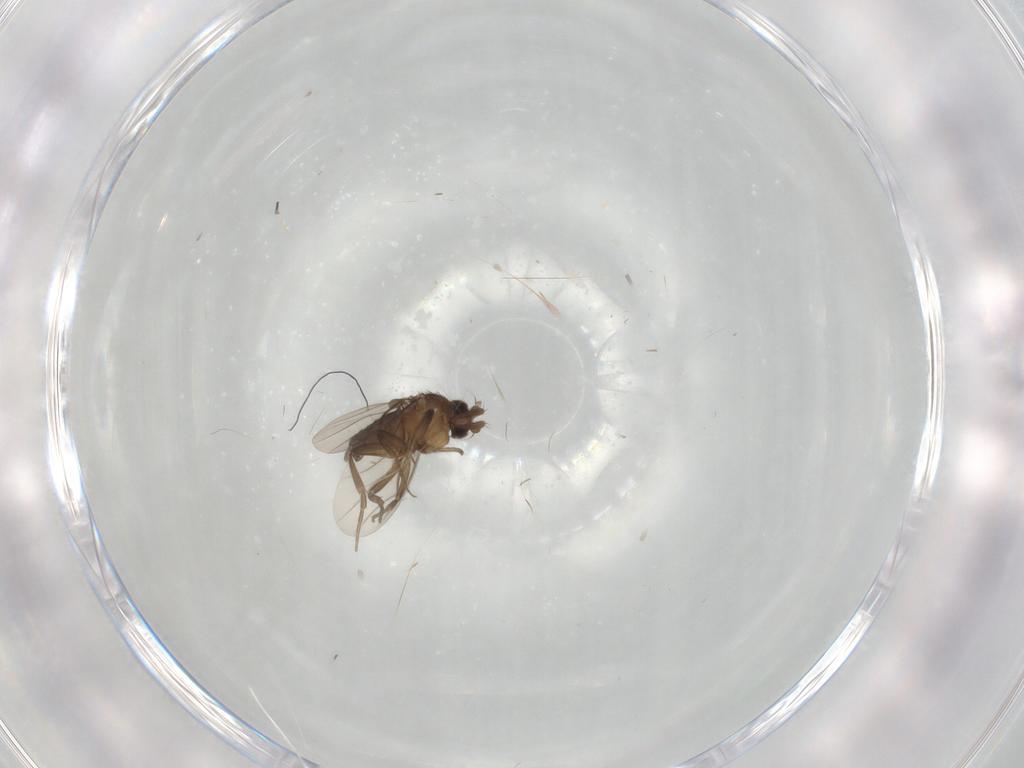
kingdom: Animalia
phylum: Arthropoda
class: Insecta
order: Diptera
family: Phoridae
